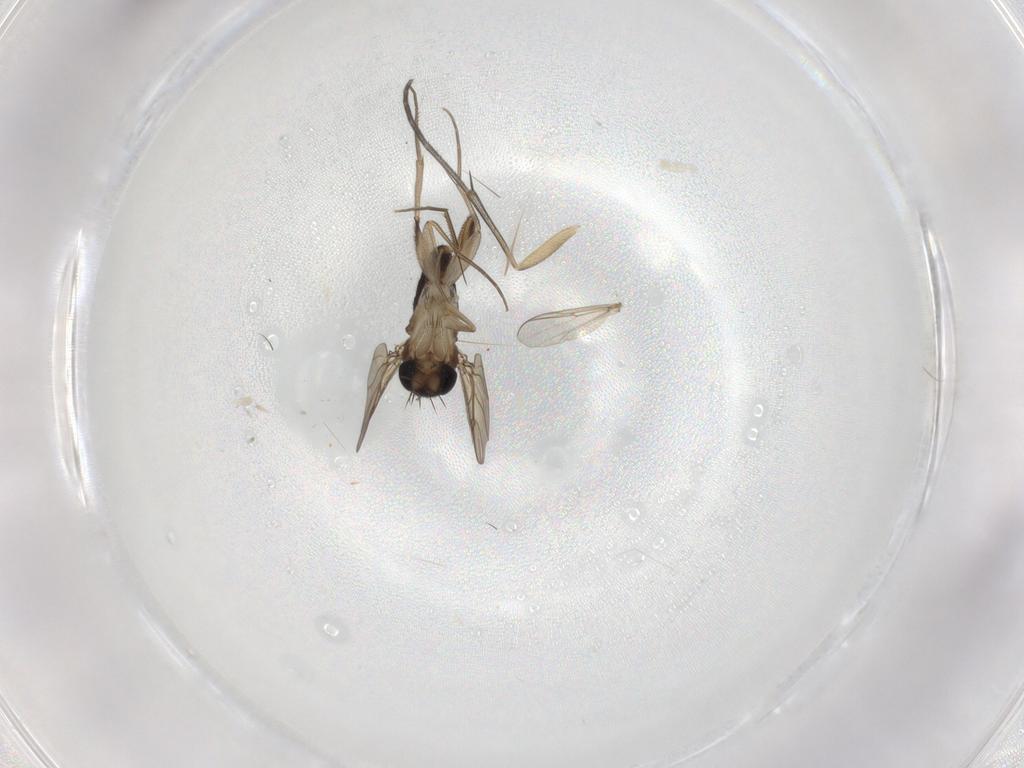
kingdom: Animalia
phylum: Arthropoda
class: Insecta
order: Diptera
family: Phoridae
